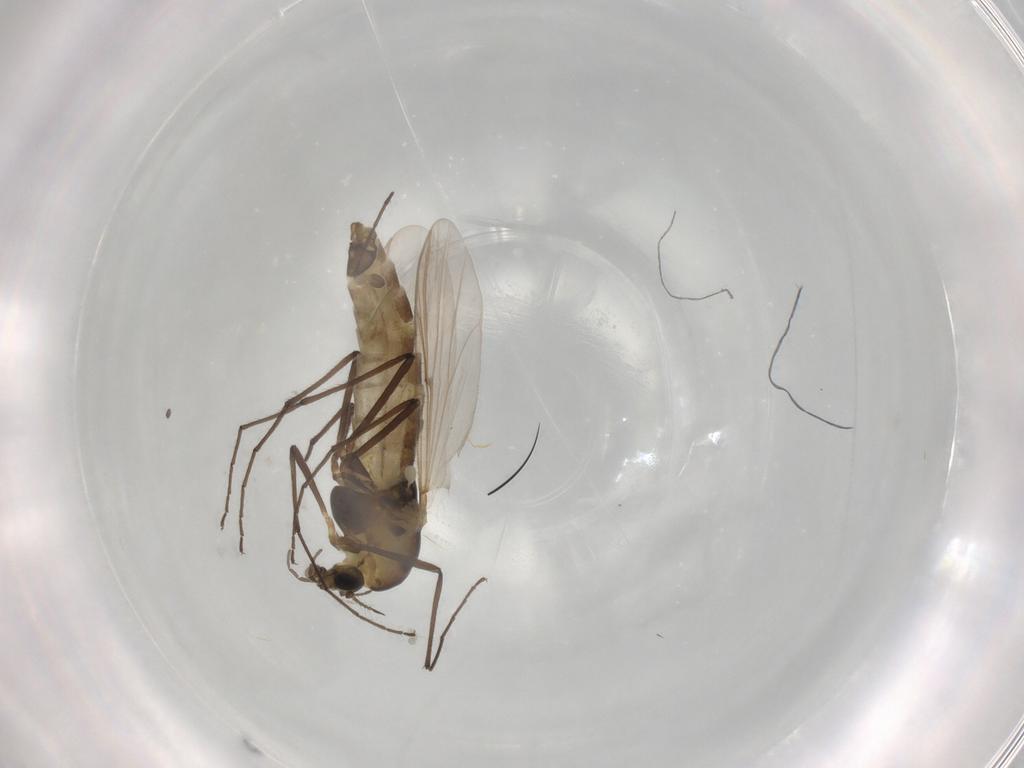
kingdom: Animalia
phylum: Arthropoda
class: Insecta
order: Diptera
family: Chironomidae
